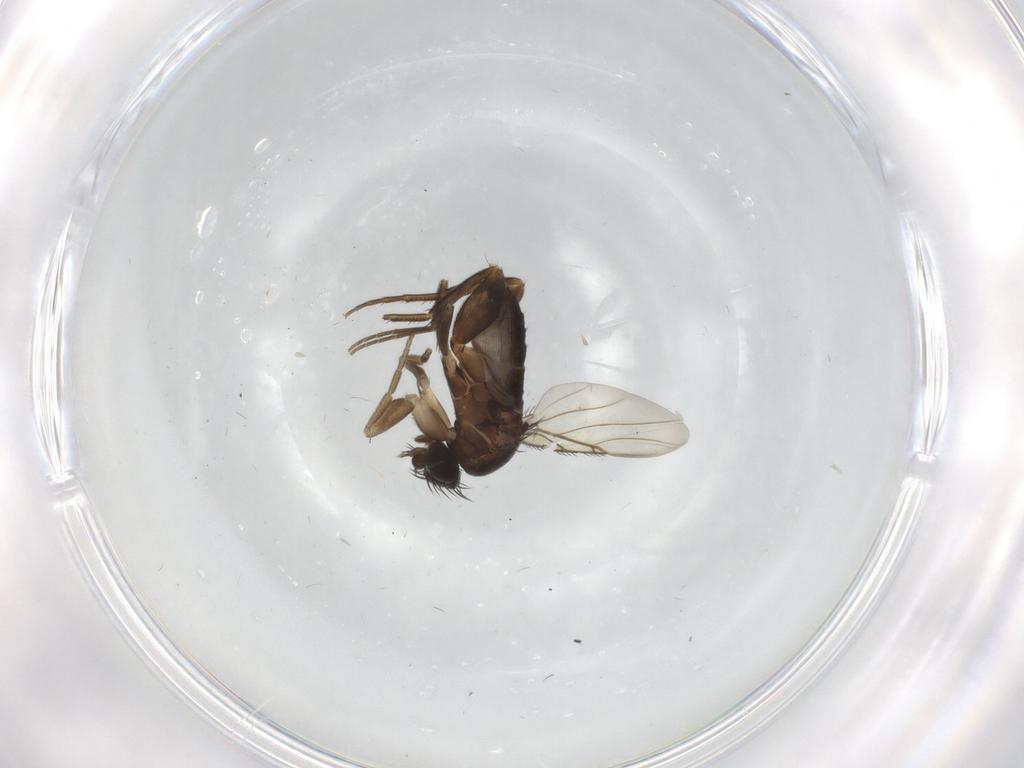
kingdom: Animalia
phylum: Arthropoda
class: Insecta
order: Diptera
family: Phoridae
